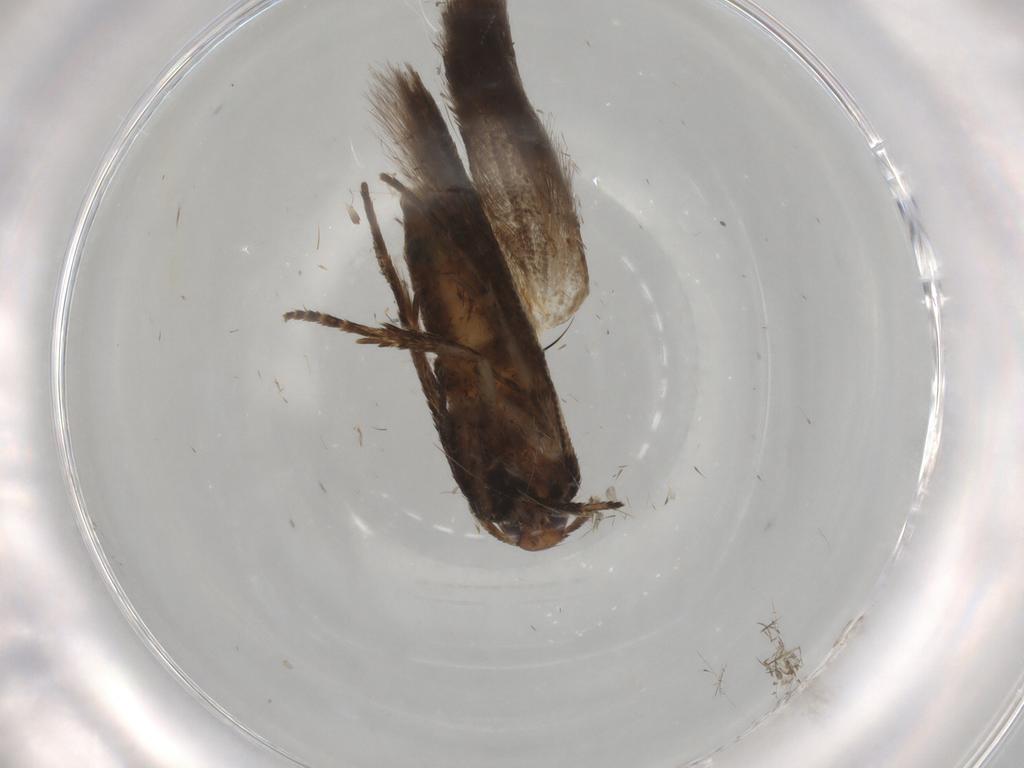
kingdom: Animalia
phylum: Arthropoda
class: Insecta
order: Lepidoptera
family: Cosmopterigidae
